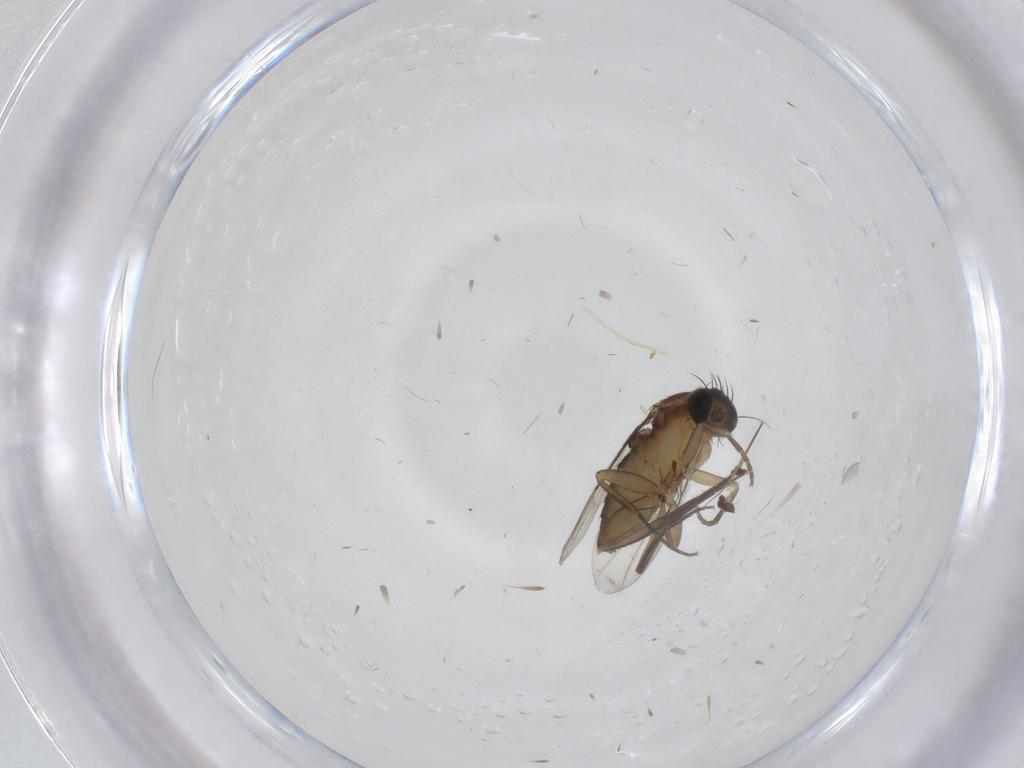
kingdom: Animalia
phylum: Arthropoda
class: Insecta
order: Diptera
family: Phoridae
